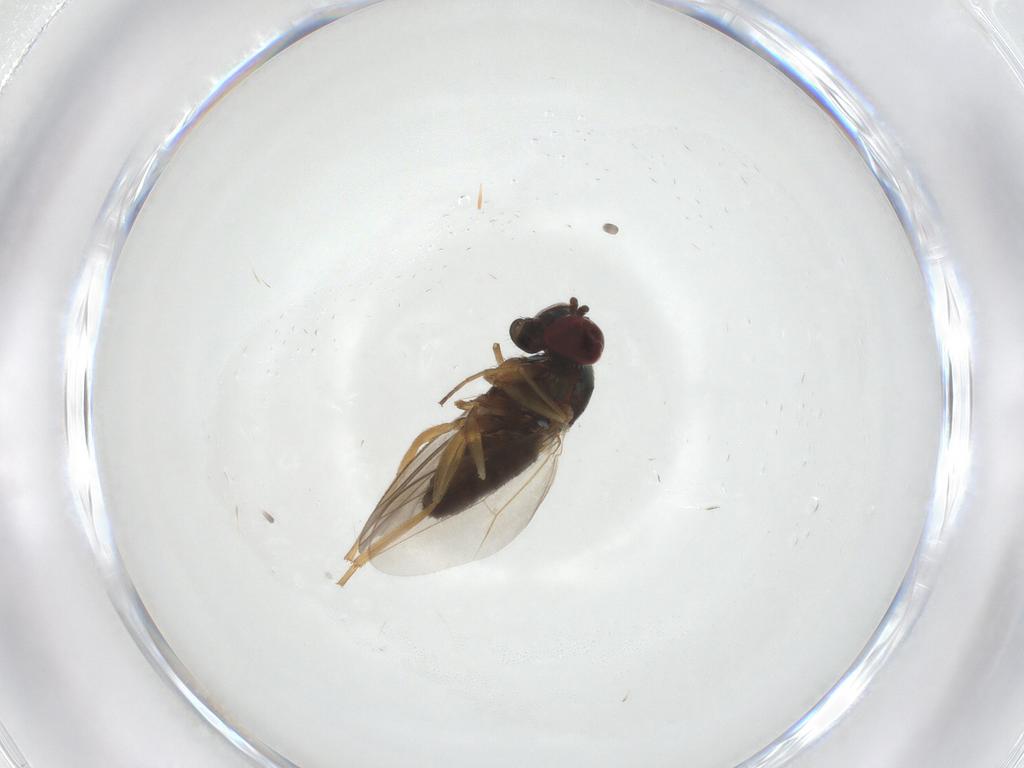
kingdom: Animalia
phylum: Arthropoda
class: Insecta
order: Diptera
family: Dolichopodidae
